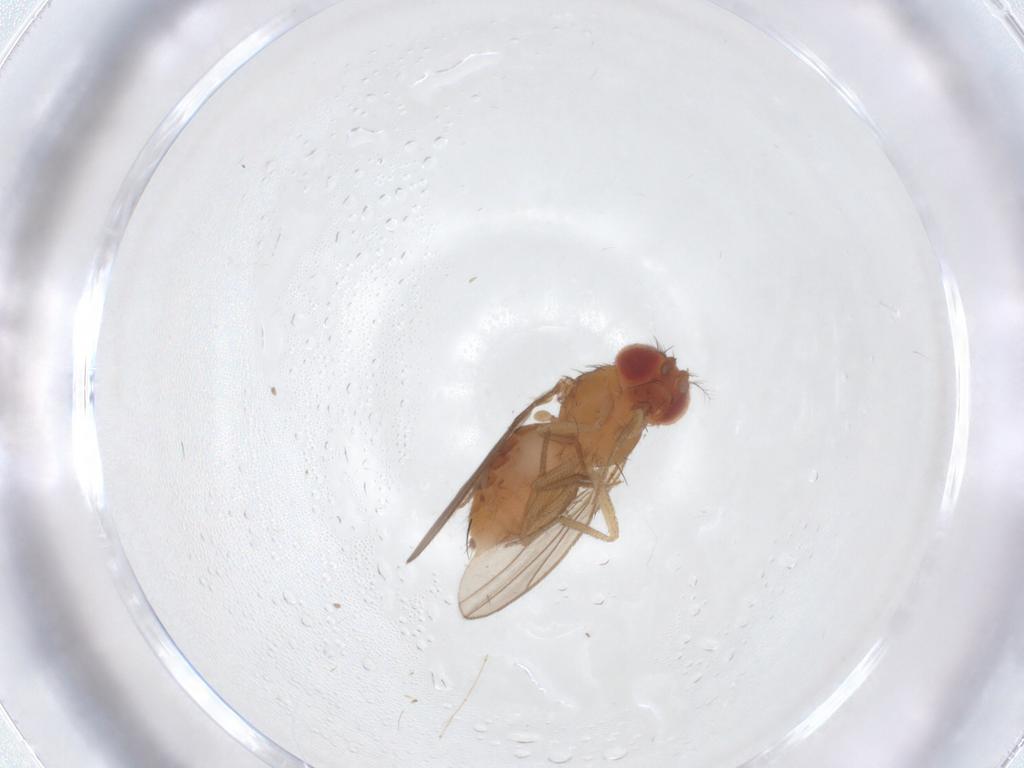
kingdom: Animalia
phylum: Arthropoda
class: Insecta
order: Diptera
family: Drosophilidae
